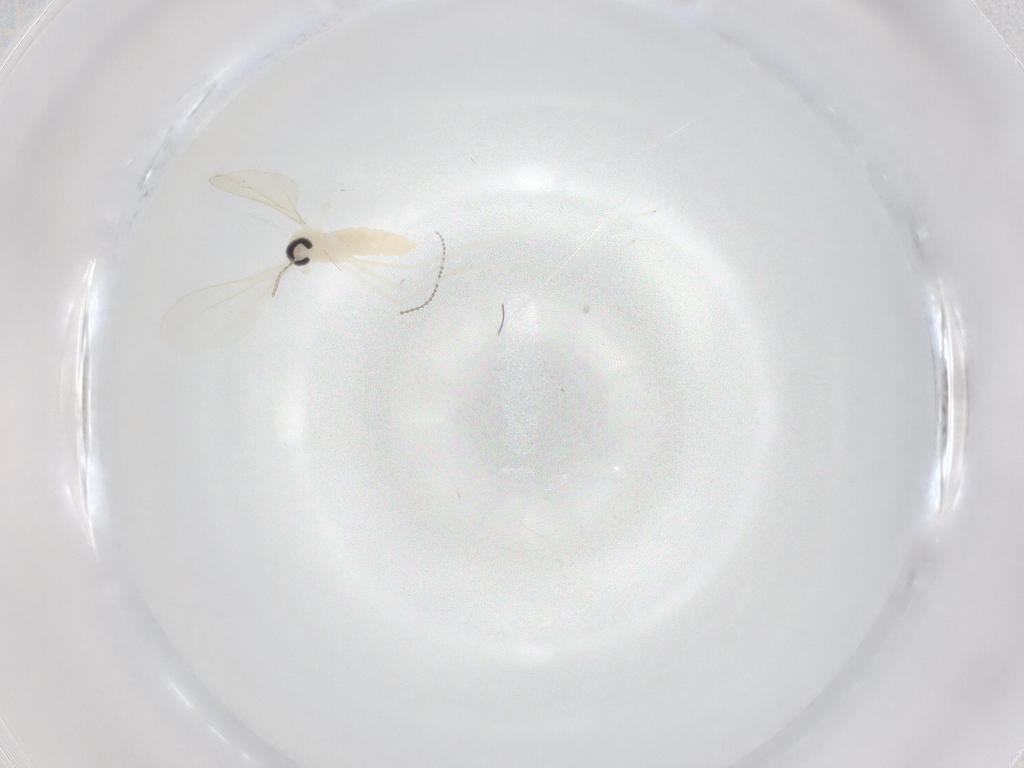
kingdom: Animalia
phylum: Arthropoda
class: Insecta
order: Diptera
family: Cecidomyiidae
